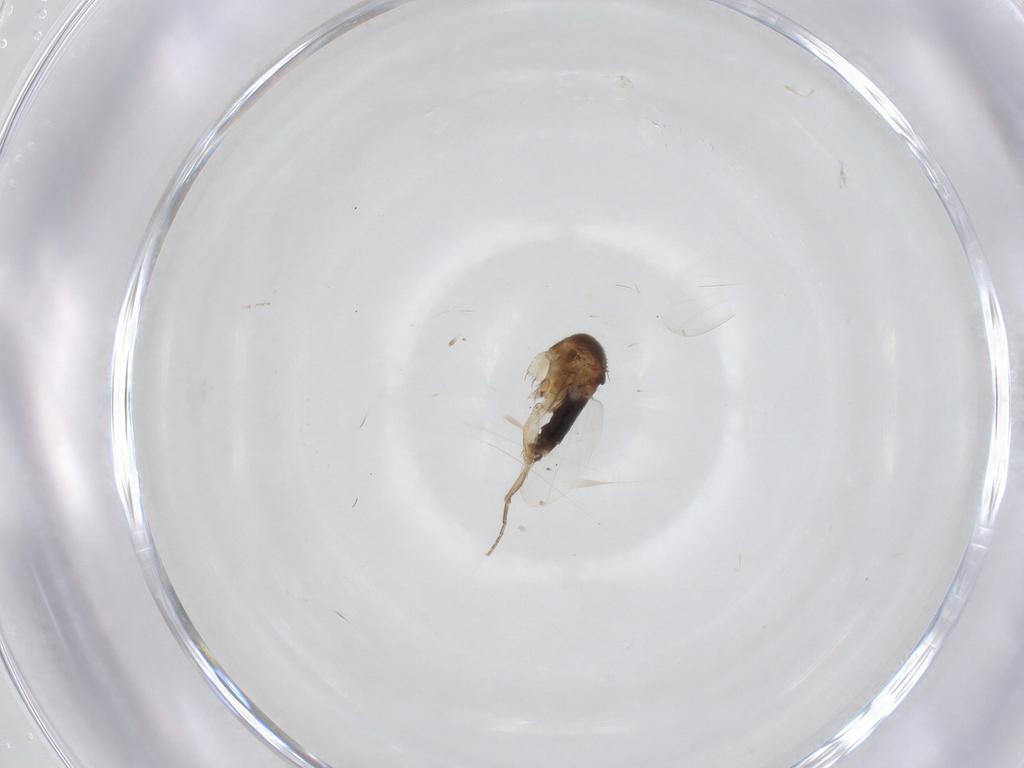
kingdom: Animalia
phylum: Arthropoda
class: Insecta
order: Diptera
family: Phoridae
